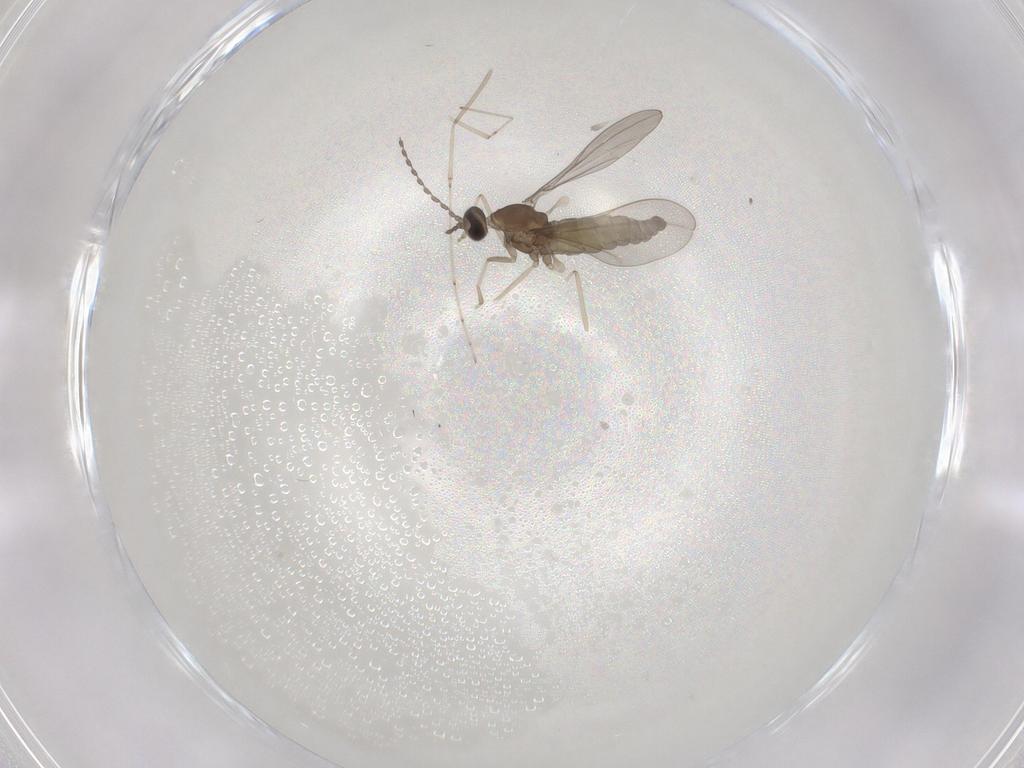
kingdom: Animalia
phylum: Arthropoda
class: Insecta
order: Diptera
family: Cecidomyiidae
